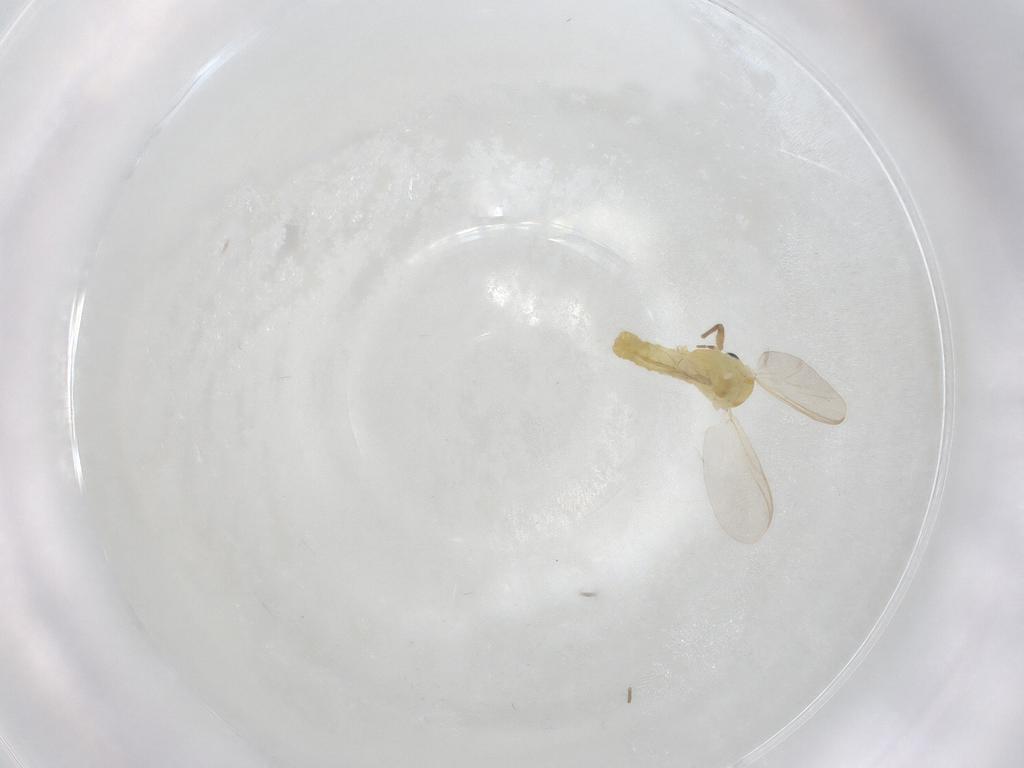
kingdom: Animalia
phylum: Arthropoda
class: Insecta
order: Diptera
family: Chironomidae
